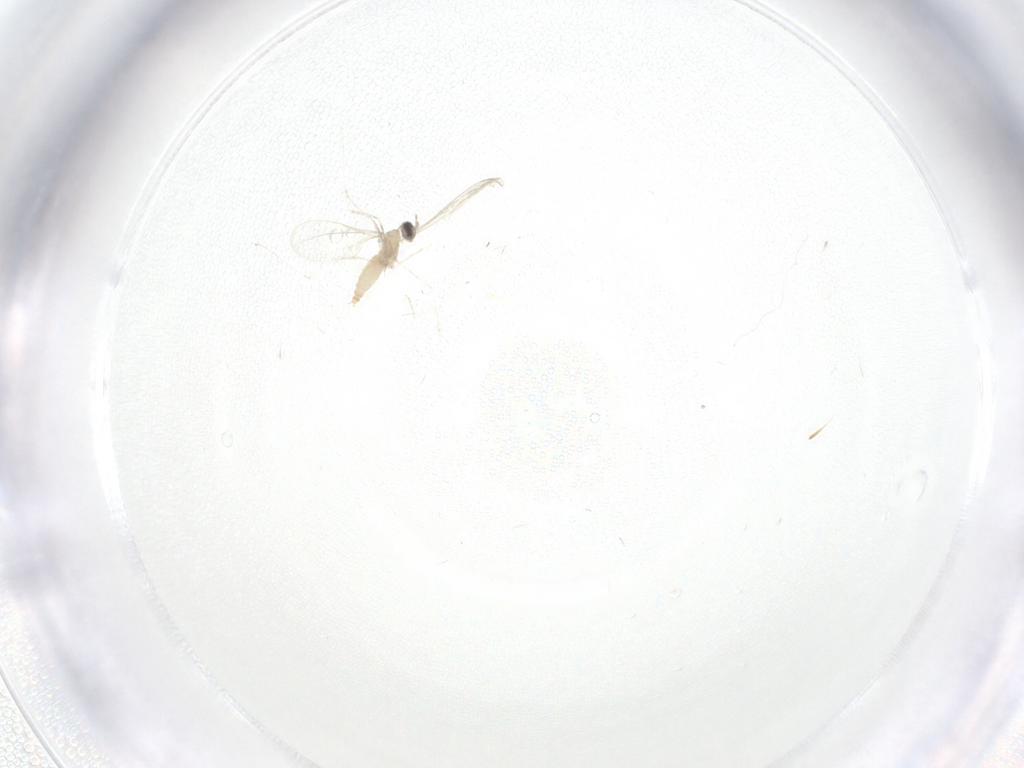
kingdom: Animalia
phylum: Arthropoda
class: Insecta
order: Diptera
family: Cecidomyiidae
